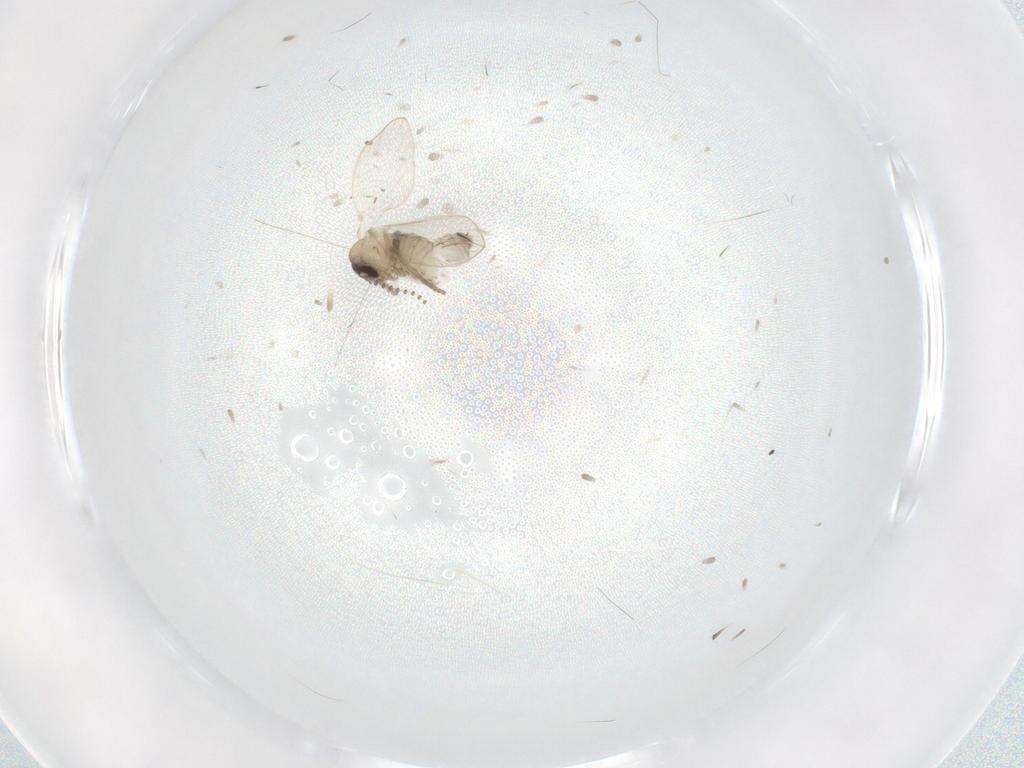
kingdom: Animalia
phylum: Arthropoda
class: Insecta
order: Diptera
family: Psychodidae
